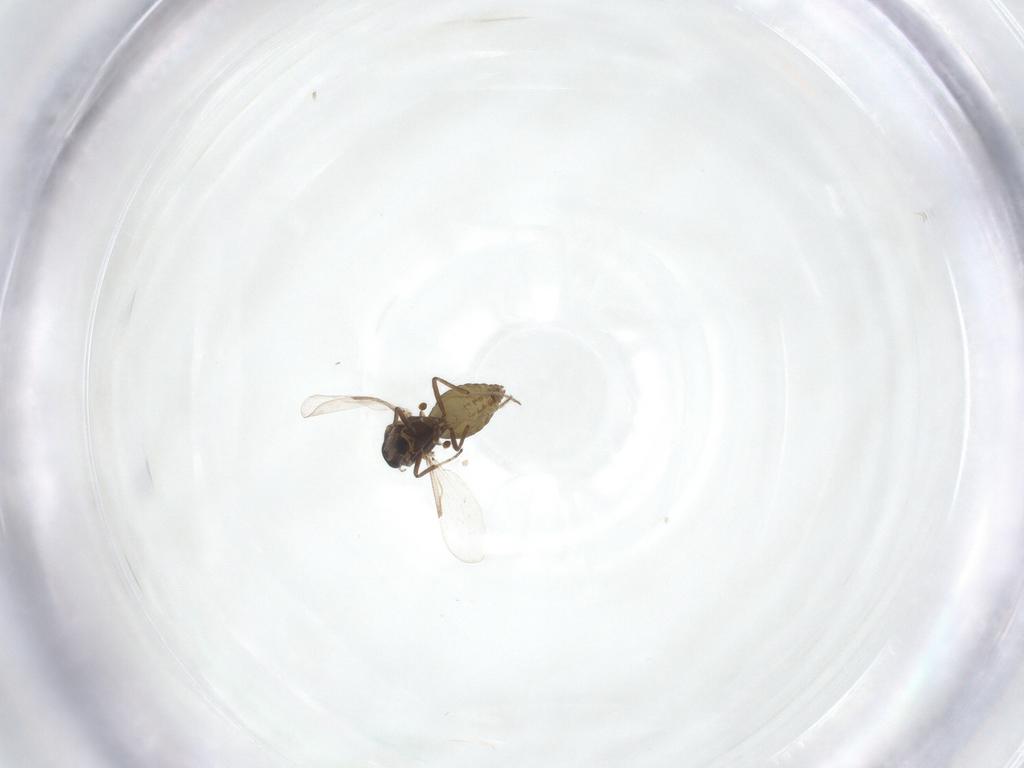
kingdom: Animalia
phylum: Arthropoda
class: Insecta
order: Diptera
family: Ceratopogonidae
